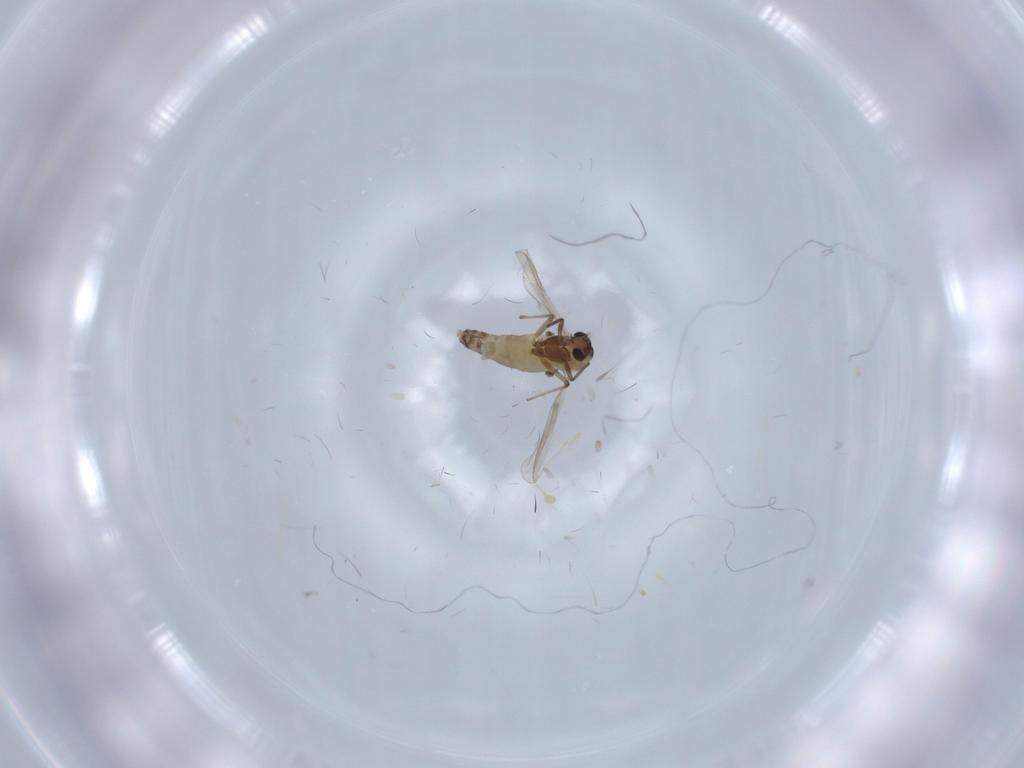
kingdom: Animalia
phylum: Arthropoda
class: Insecta
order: Diptera
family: Chironomidae
